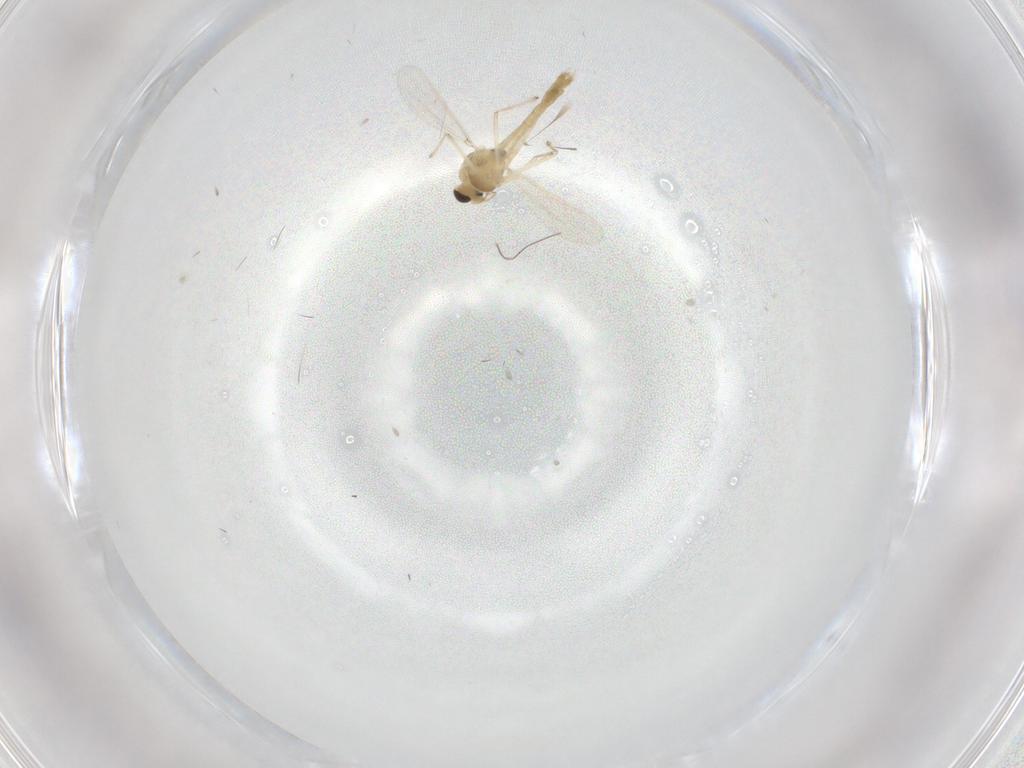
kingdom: Animalia
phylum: Arthropoda
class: Insecta
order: Diptera
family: Chironomidae
